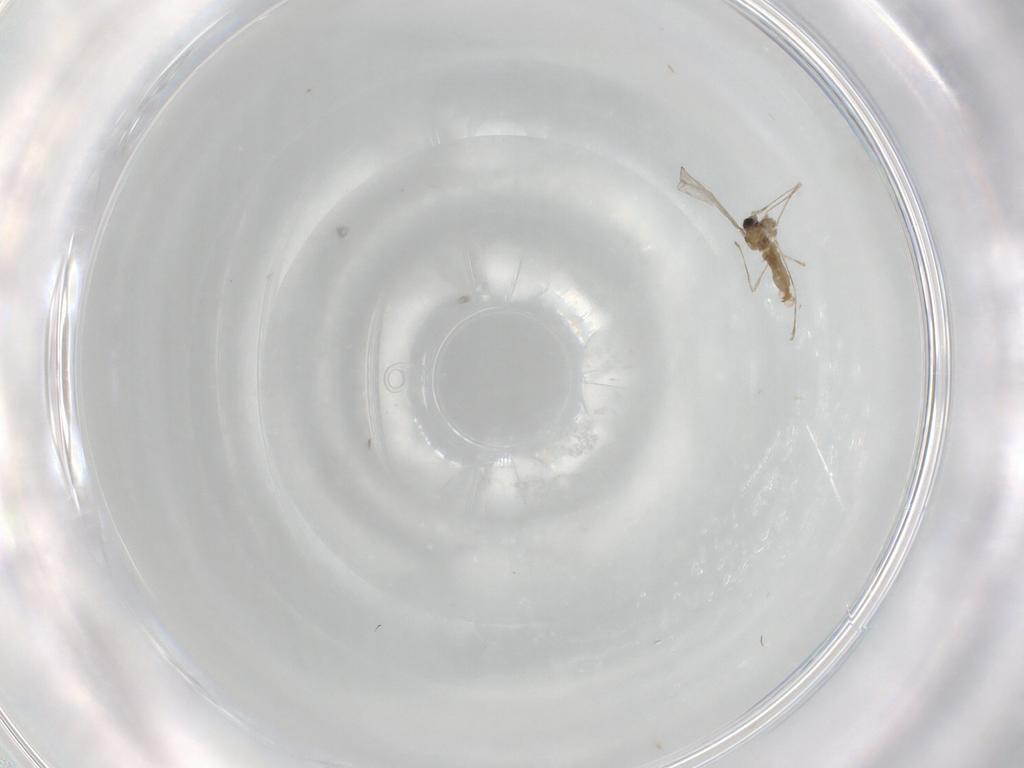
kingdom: Animalia
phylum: Arthropoda
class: Insecta
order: Diptera
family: Cecidomyiidae
